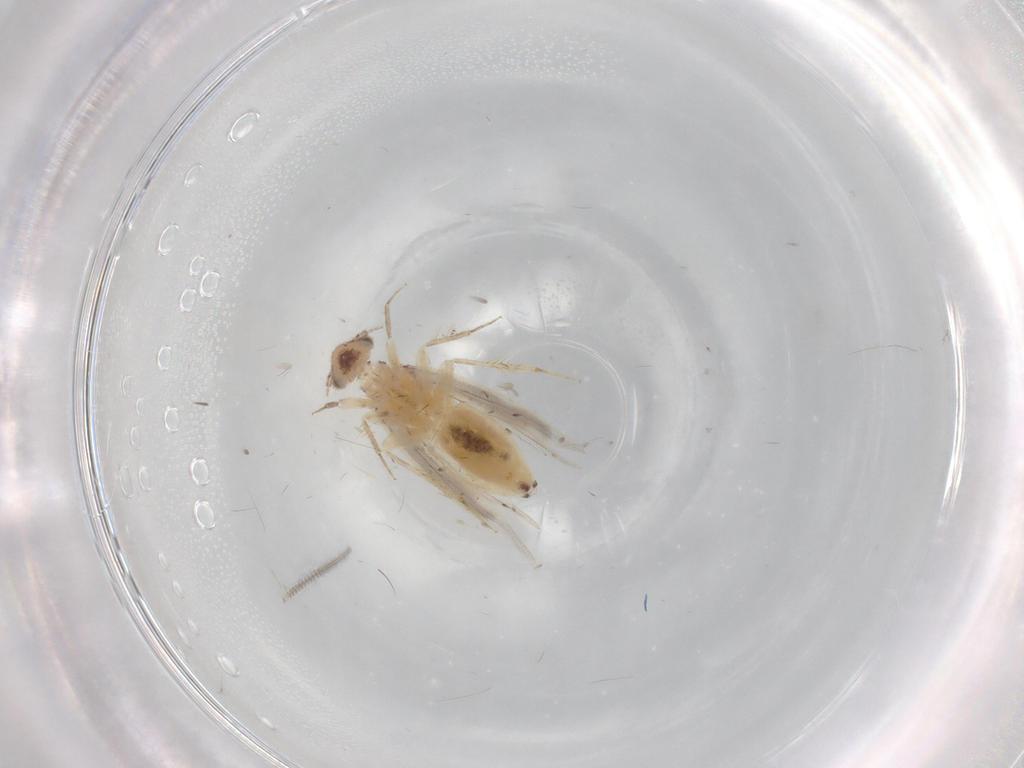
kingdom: Animalia
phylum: Arthropoda
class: Insecta
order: Psocodea
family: Lepidopsocidae
